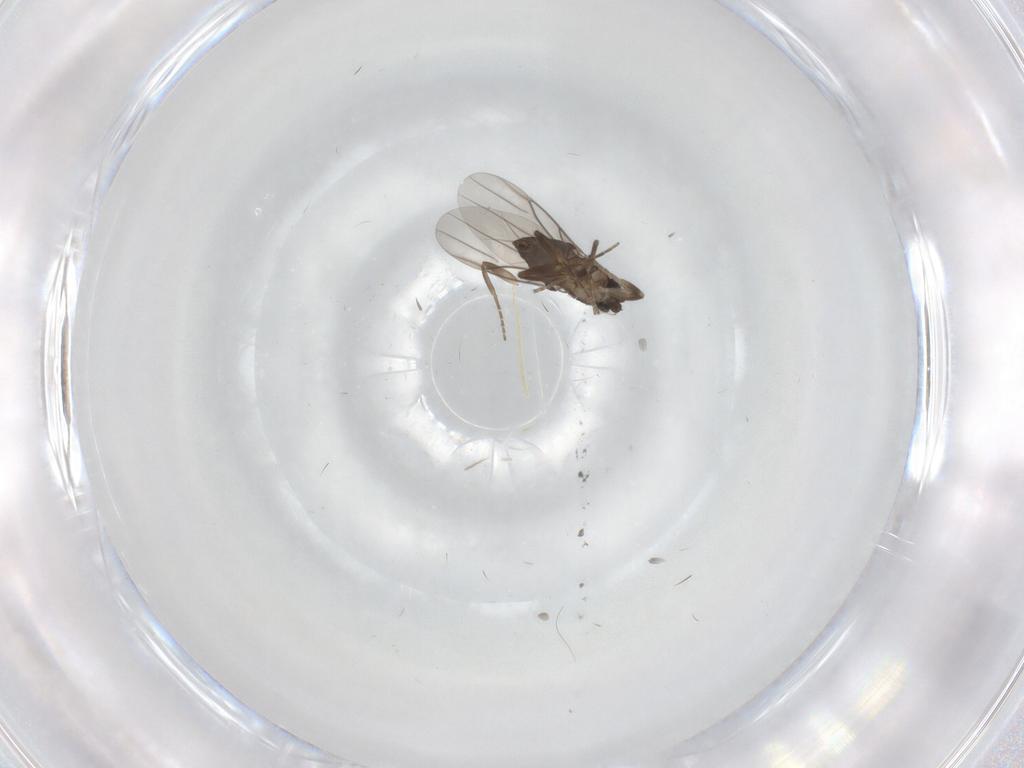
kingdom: Animalia
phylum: Arthropoda
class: Insecta
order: Diptera
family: Phoridae
